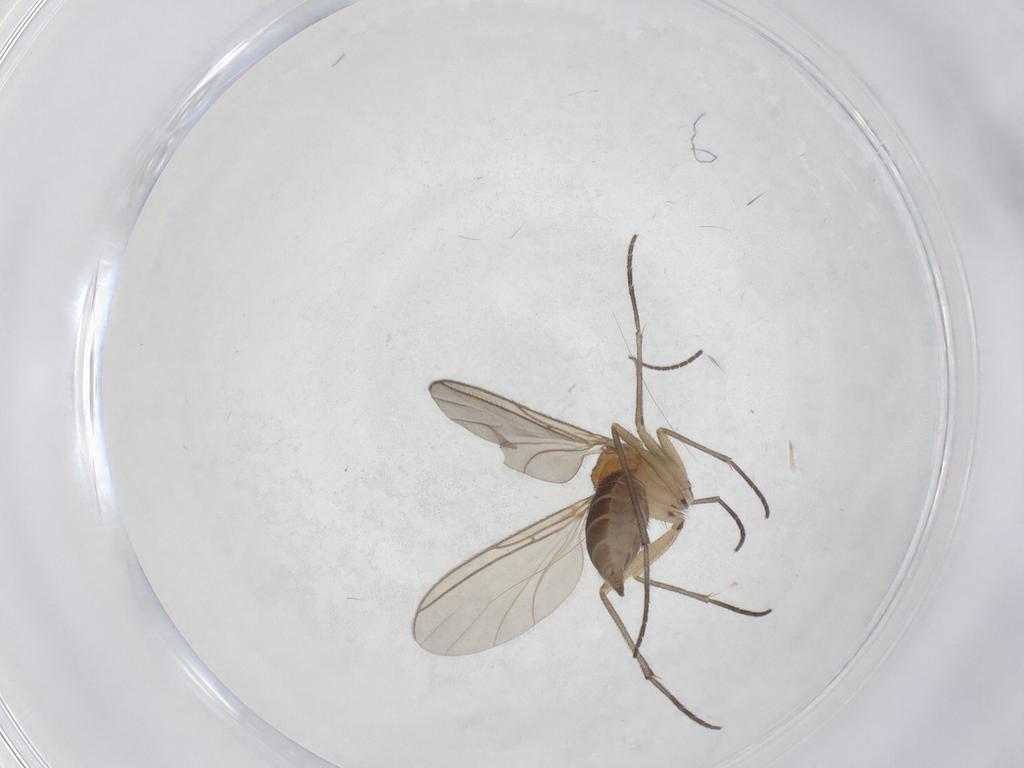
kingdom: Animalia
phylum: Arthropoda
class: Insecta
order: Diptera
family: Sciaridae
